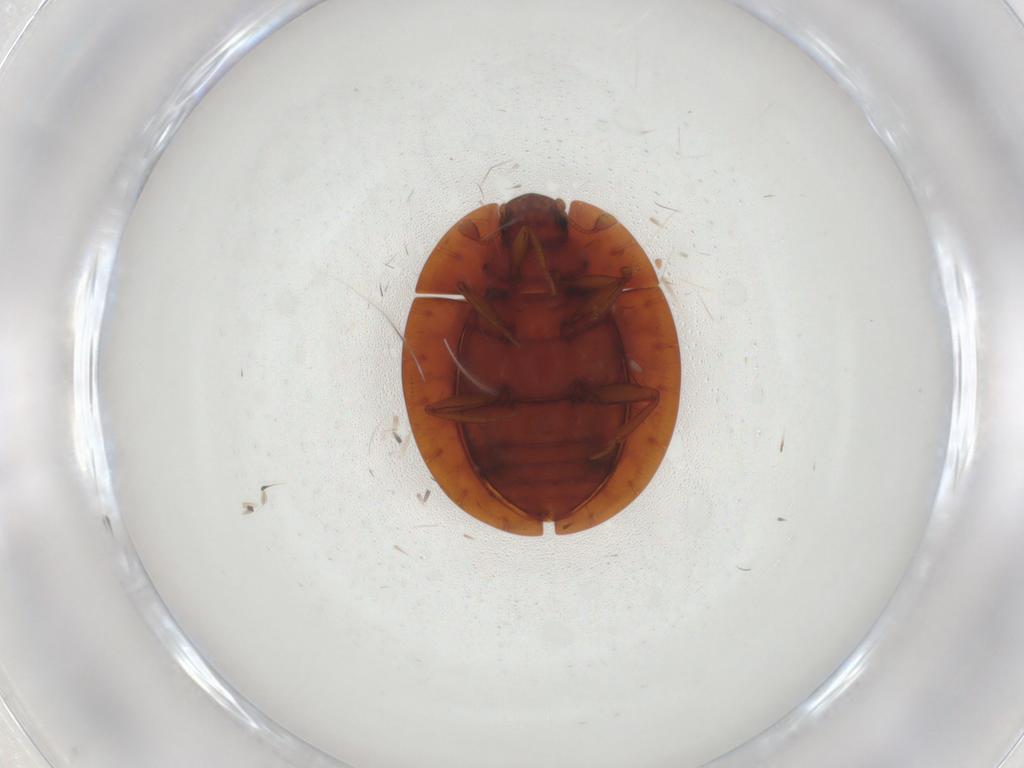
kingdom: Animalia
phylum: Arthropoda
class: Insecta
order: Coleoptera
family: Discolomatidae
